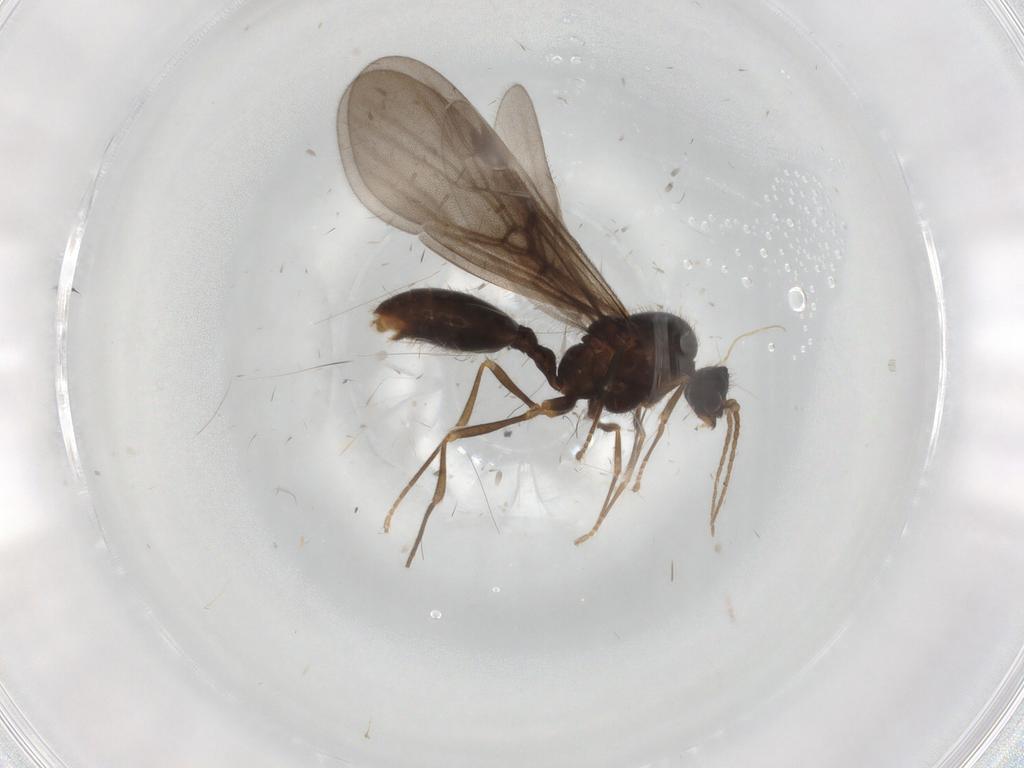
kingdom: Animalia
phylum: Arthropoda
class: Insecta
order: Hymenoptera
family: Formicidae
